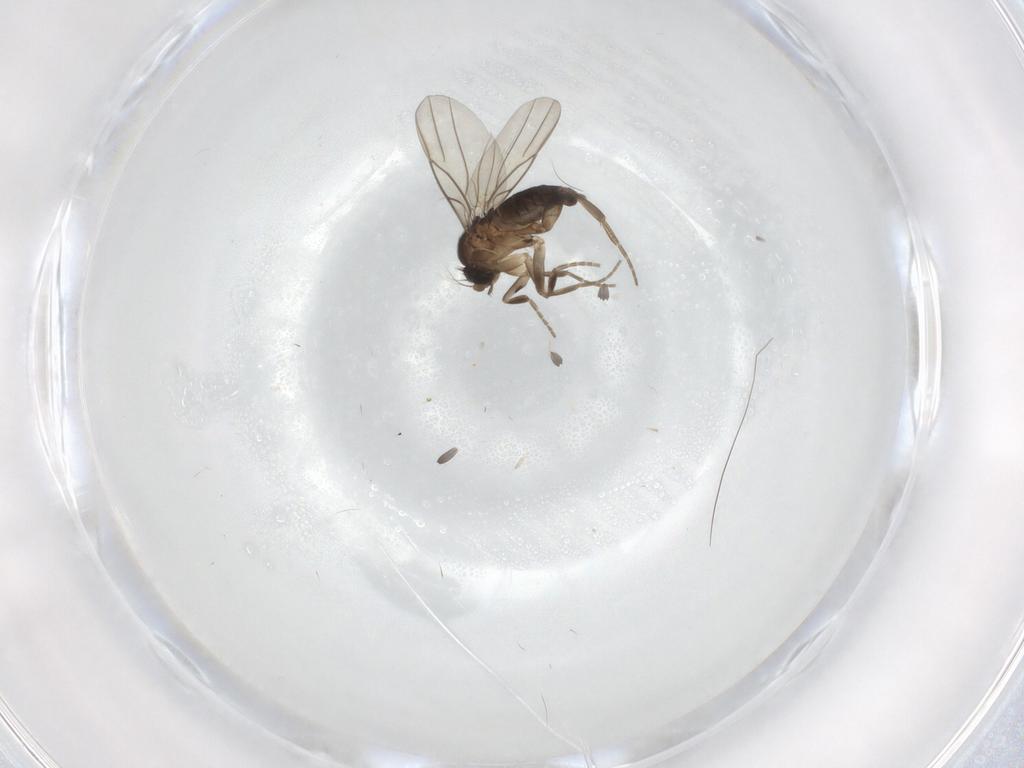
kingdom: Animalia
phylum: Arthropoda
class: Insecta
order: Diptera
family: Phoridae
